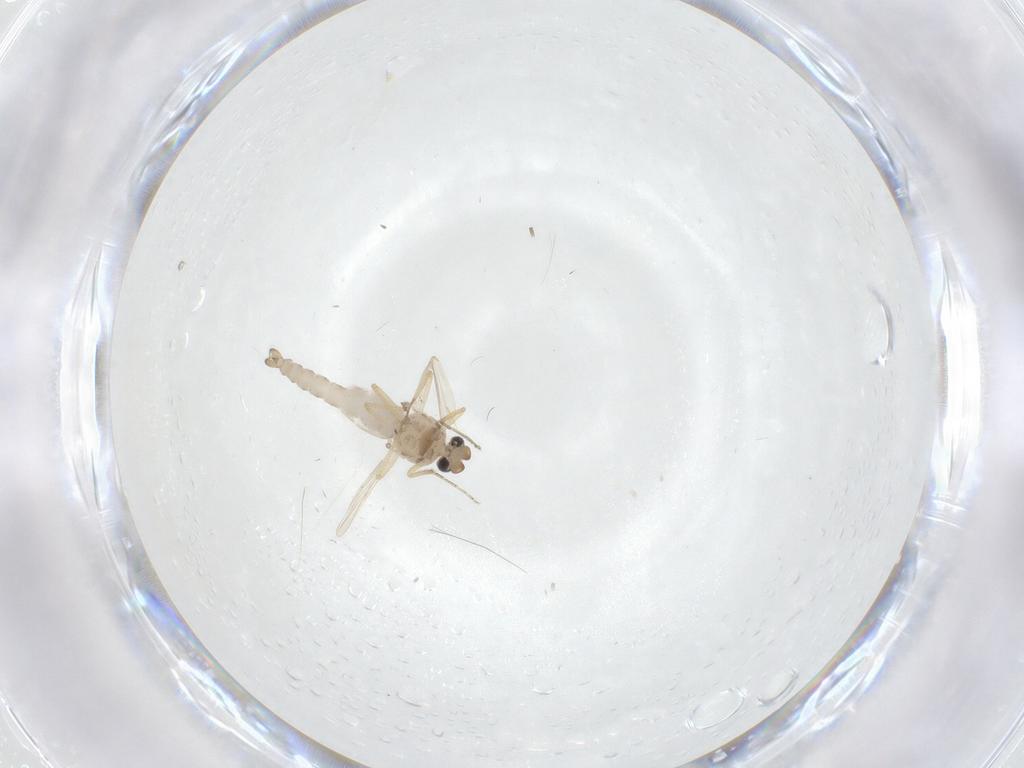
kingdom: Animalia
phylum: Arthropoda
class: Insecta
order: Diptera
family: Ceratopogonidae
